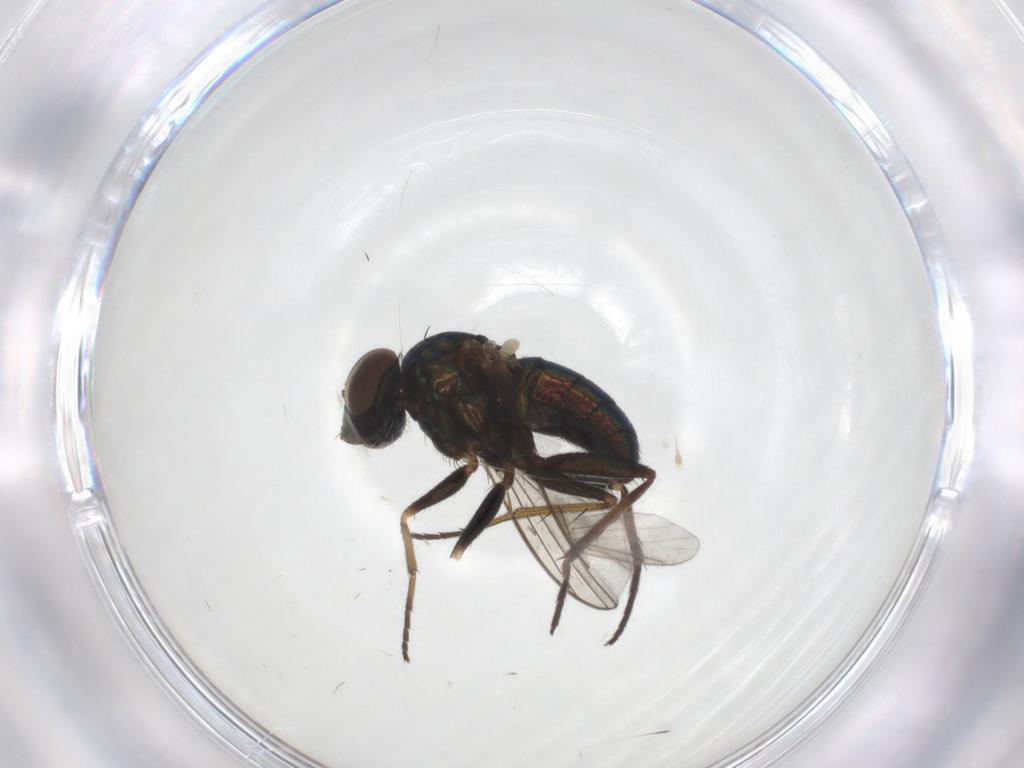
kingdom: Animalia
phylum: Arthropoda
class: Insecta
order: Diptera
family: Dolichopodidae
